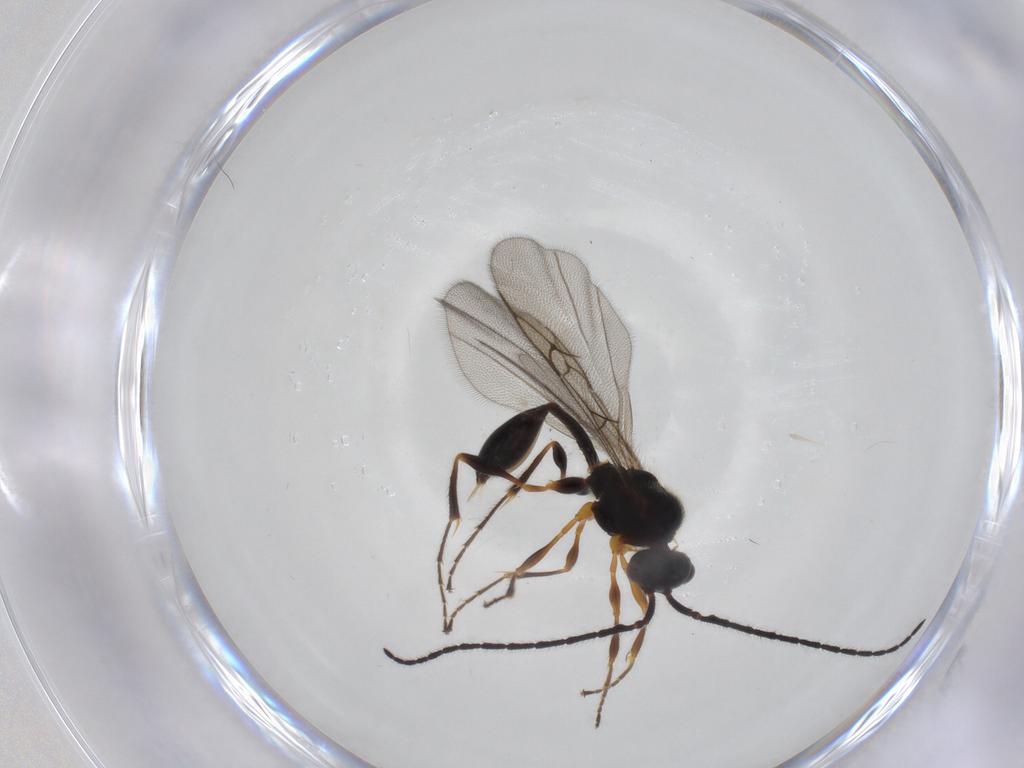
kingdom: Animalia
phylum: Arthropoda
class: Insecta
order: Hymenoptera
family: Diapriidae
